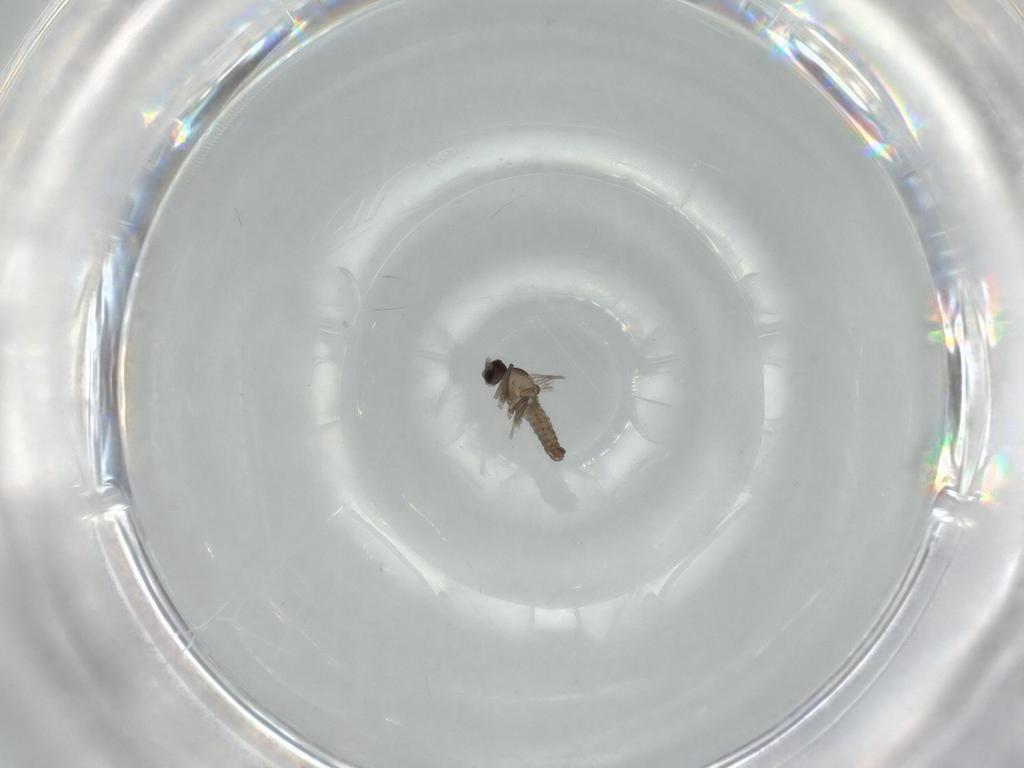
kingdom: Animalia
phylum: Arthropoda
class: Insecta
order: Diptera
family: Chironomidae
